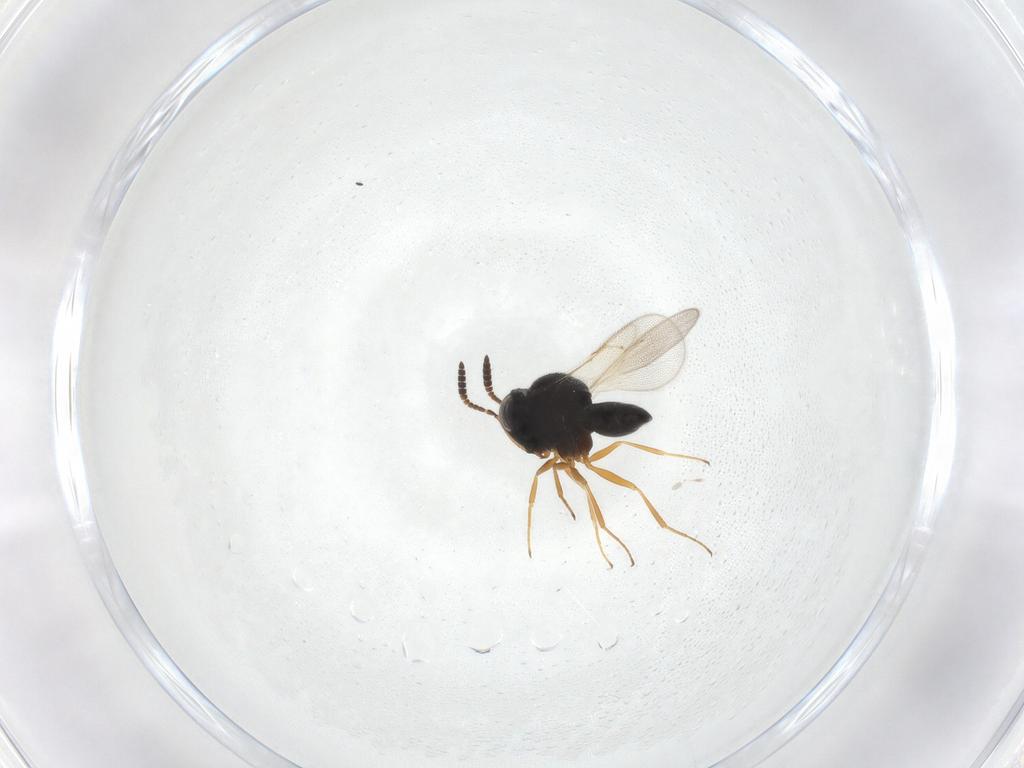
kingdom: Animalia
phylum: Arthropoda
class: Insecta
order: Hymenoptera
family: Scelionidae
